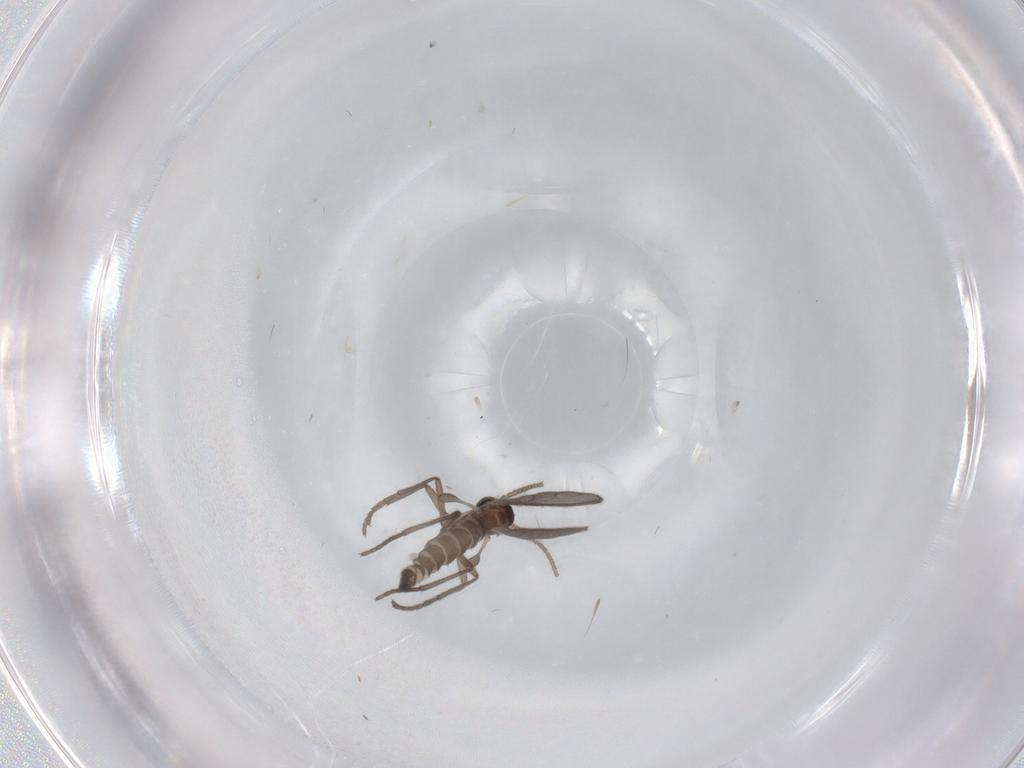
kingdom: Animalia
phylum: Arthropoda
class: Insecta
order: Diptera
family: Sciaridae
